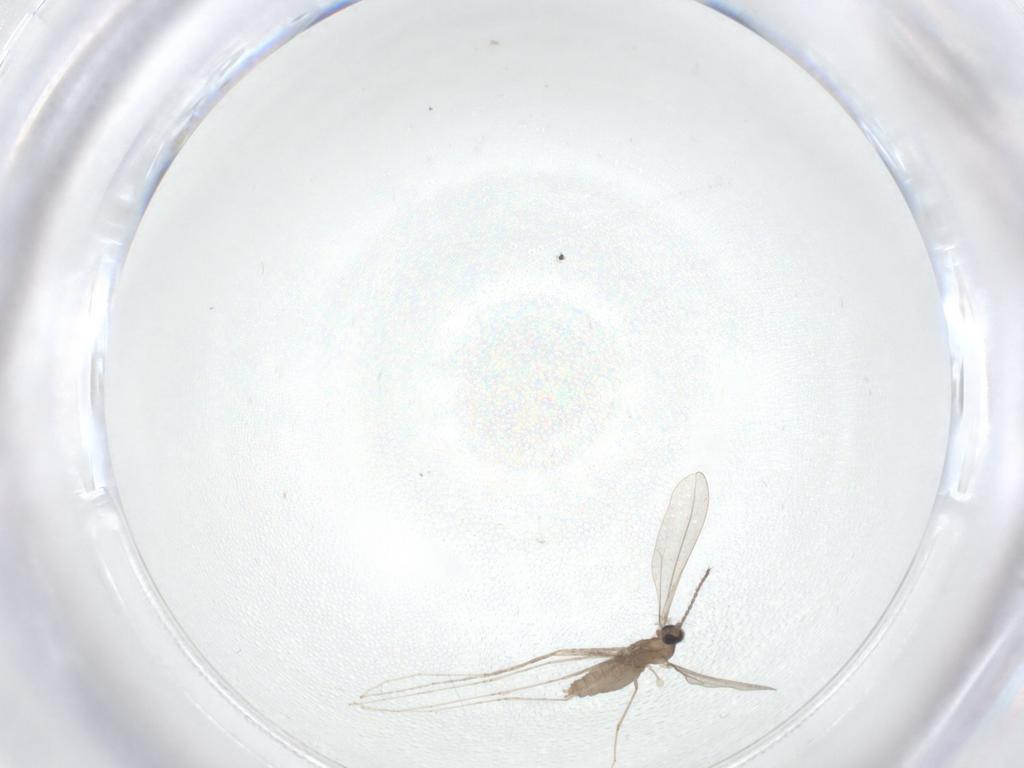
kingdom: Animalia
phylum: Arthropoda
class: Insecta
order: Diptera
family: Cecidomyiidae
